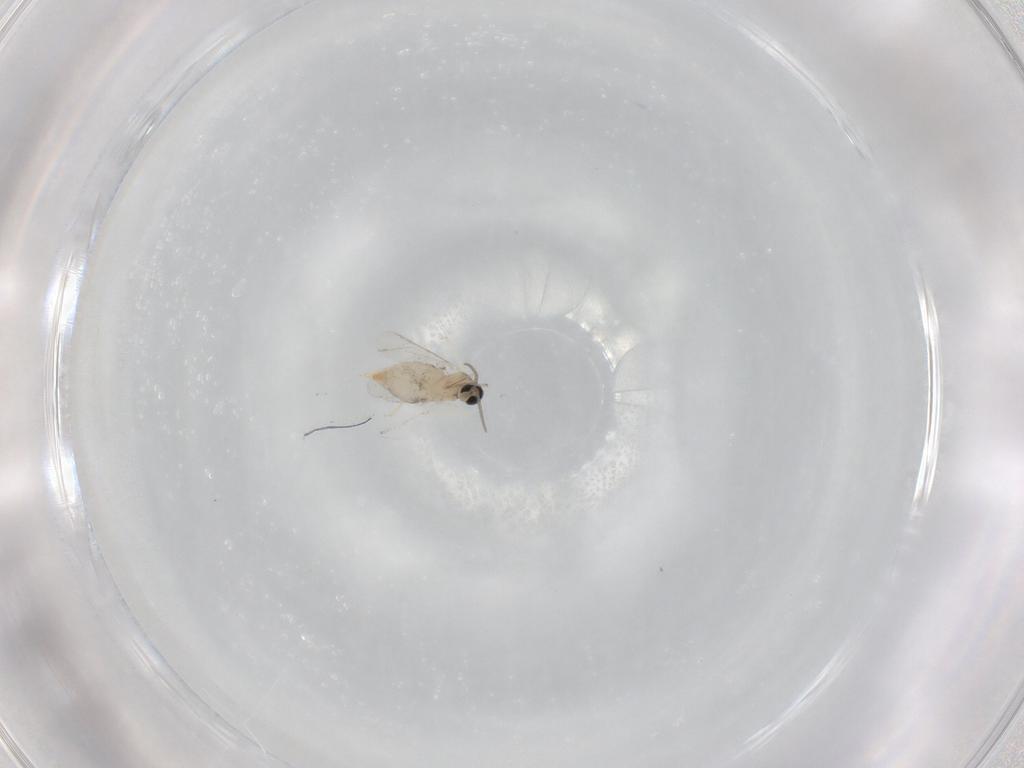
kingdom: Animalia
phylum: Arthropoda
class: Insecta
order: Diptera
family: Cecidomyiidae
